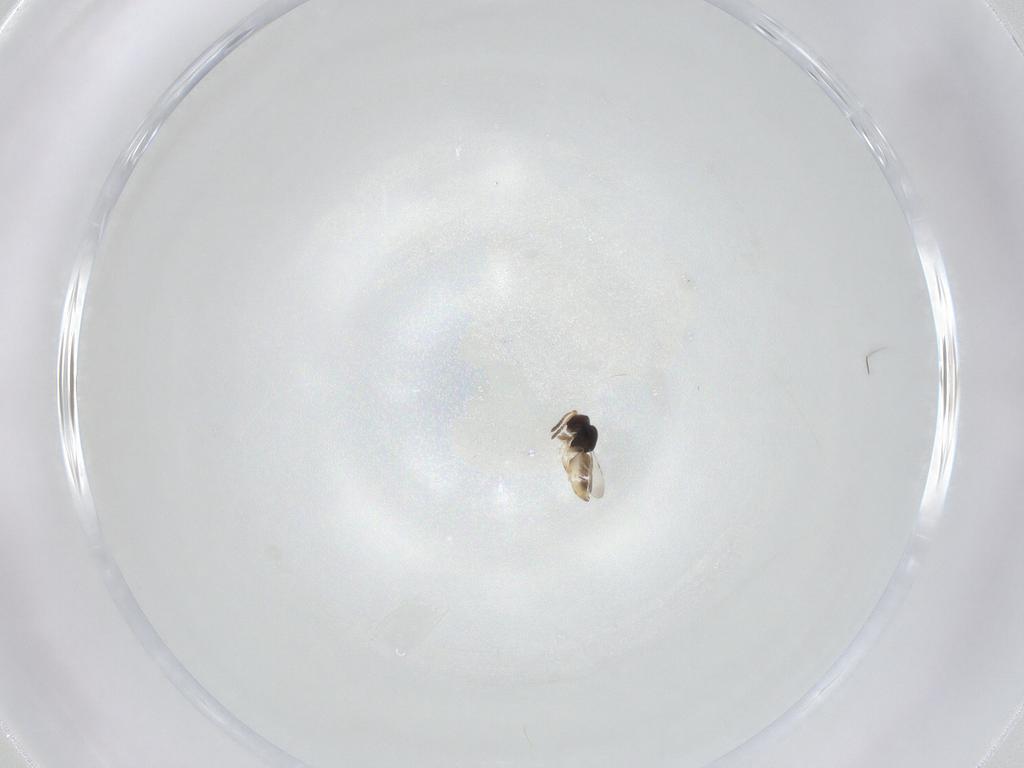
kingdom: Animalia
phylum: Arthropoda
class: Insecta
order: Hymenoptera
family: Ceraphronidae
